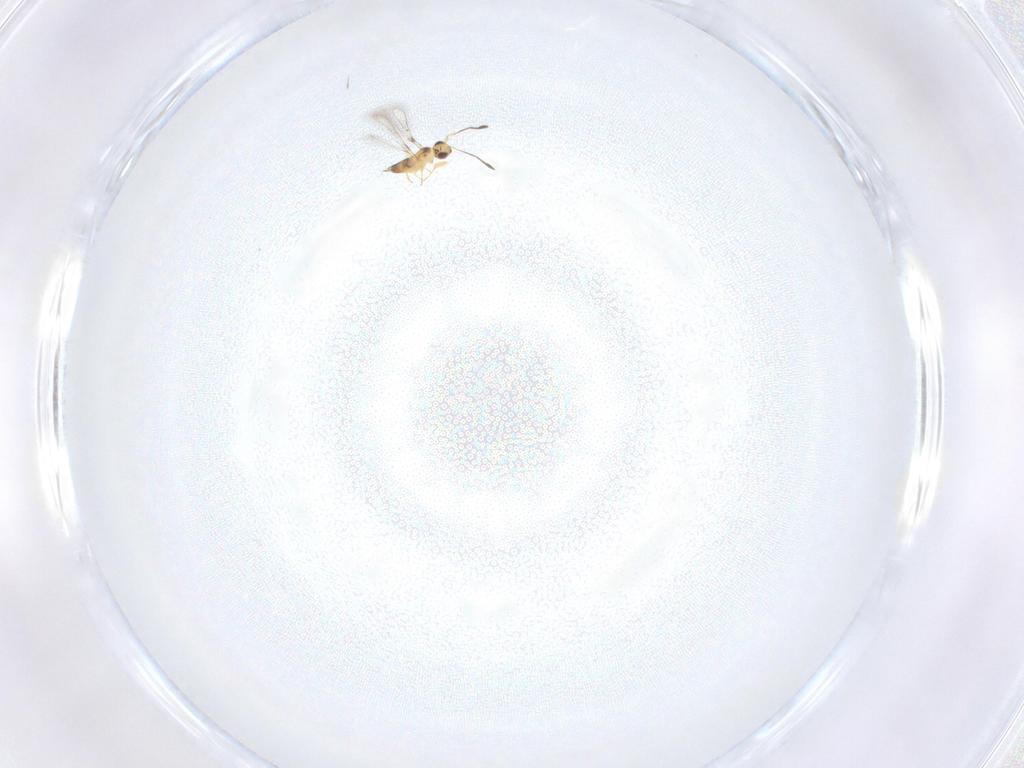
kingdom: Animalia
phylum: Arthropoda
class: Insecta
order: Hymenoptera
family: Mymaridae
